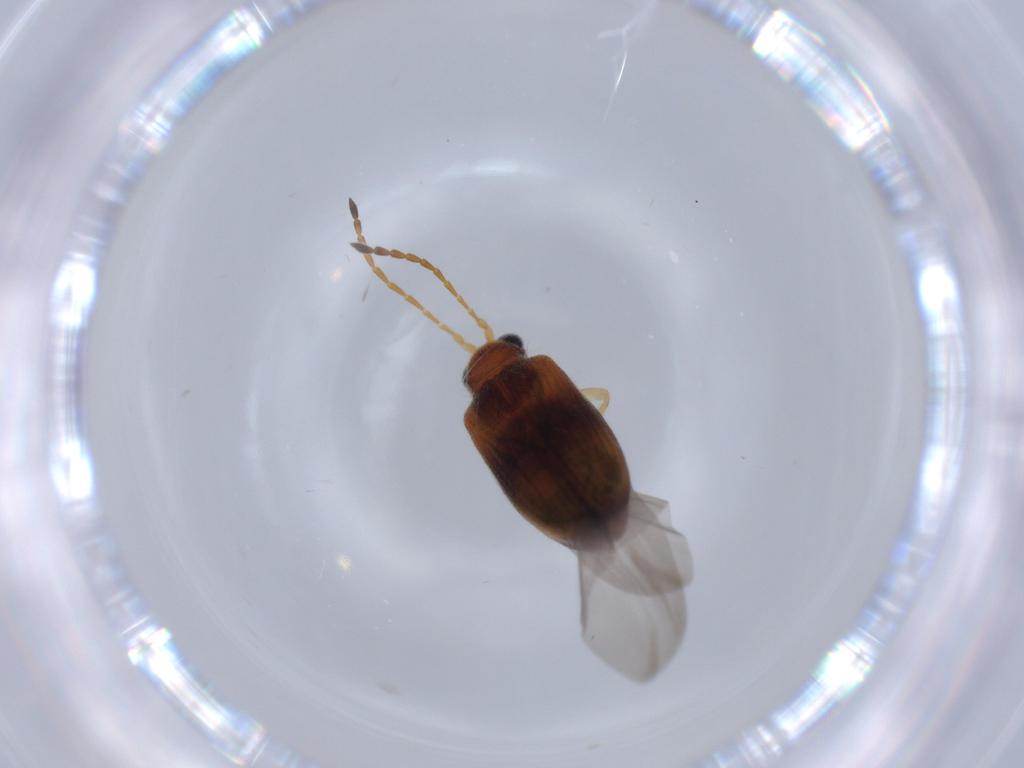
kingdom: Animalia
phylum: Arthropoda
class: Insecta
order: Coleoptera
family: Chrysomelidae
